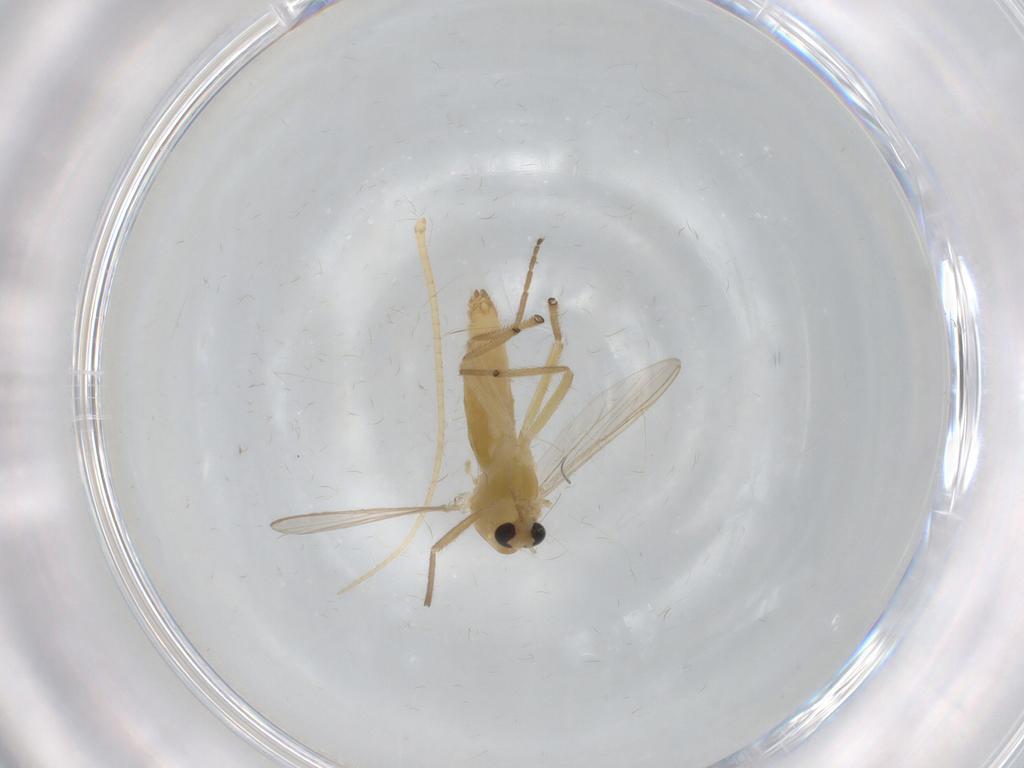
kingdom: Animalia
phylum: Arthropoda
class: Insecta
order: Diptera
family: Chironomidae
